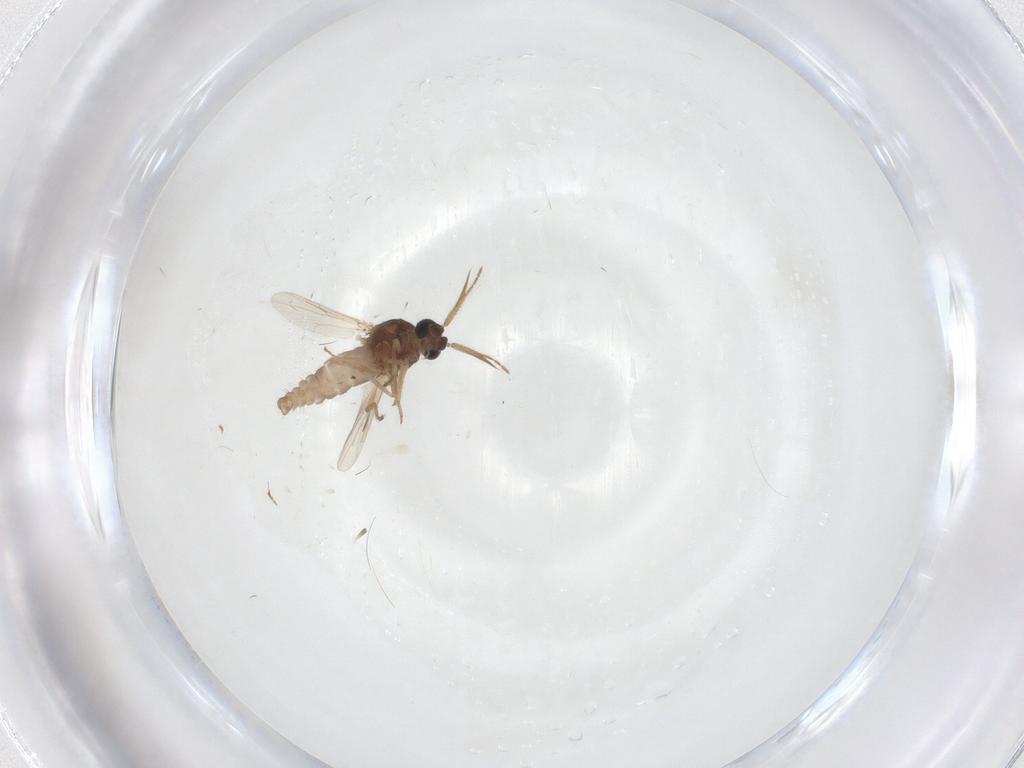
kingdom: Animalia
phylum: Arthropoda
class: Insecta
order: Diptera
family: Ceratopogonidae
